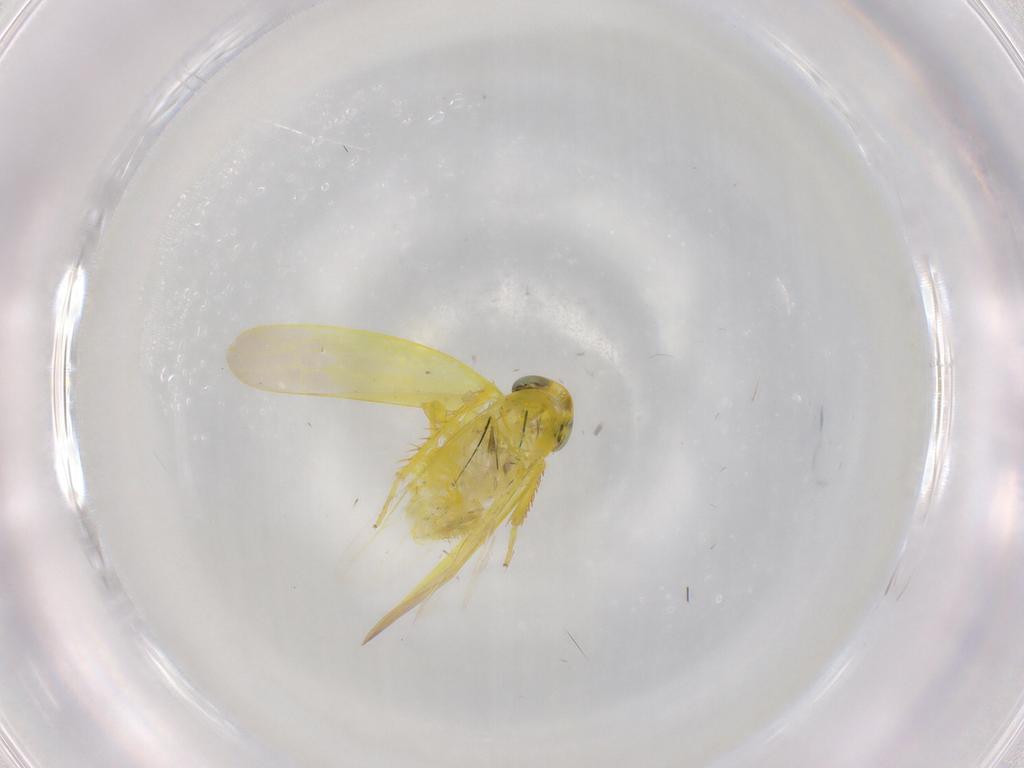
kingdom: Animalia
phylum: Arthropoda
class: Insecta
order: Hemiptera
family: Cicadellidae
